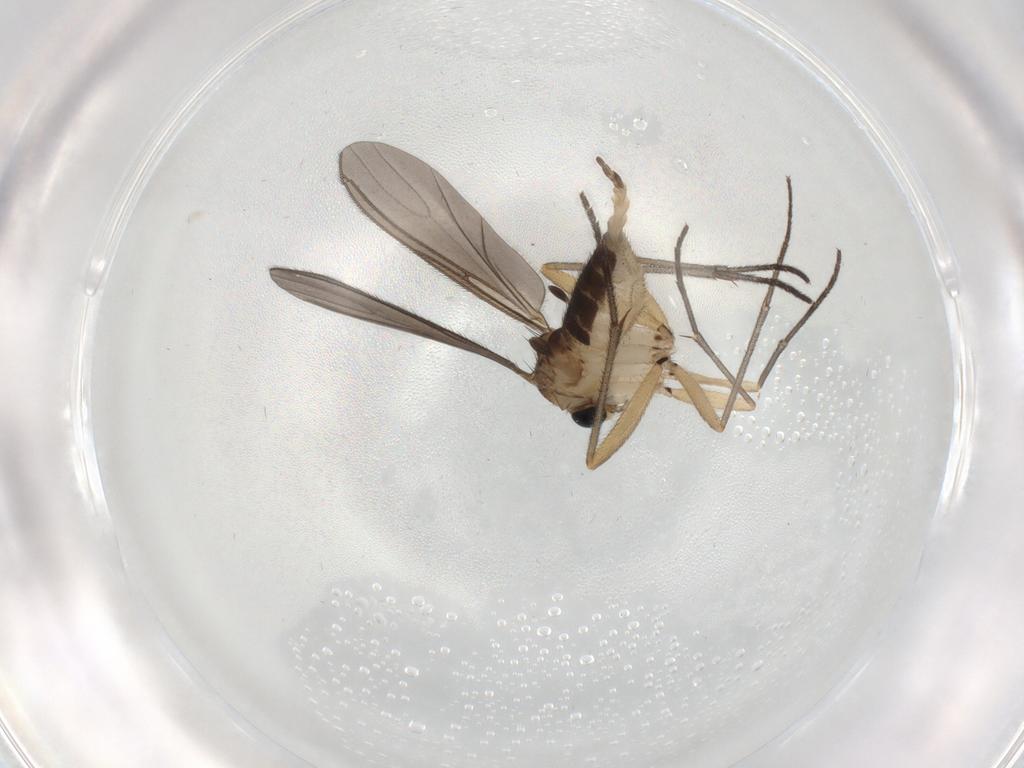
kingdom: Animalia
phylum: Arthropoda
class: Insecta
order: Diptera
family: Sciaridae
